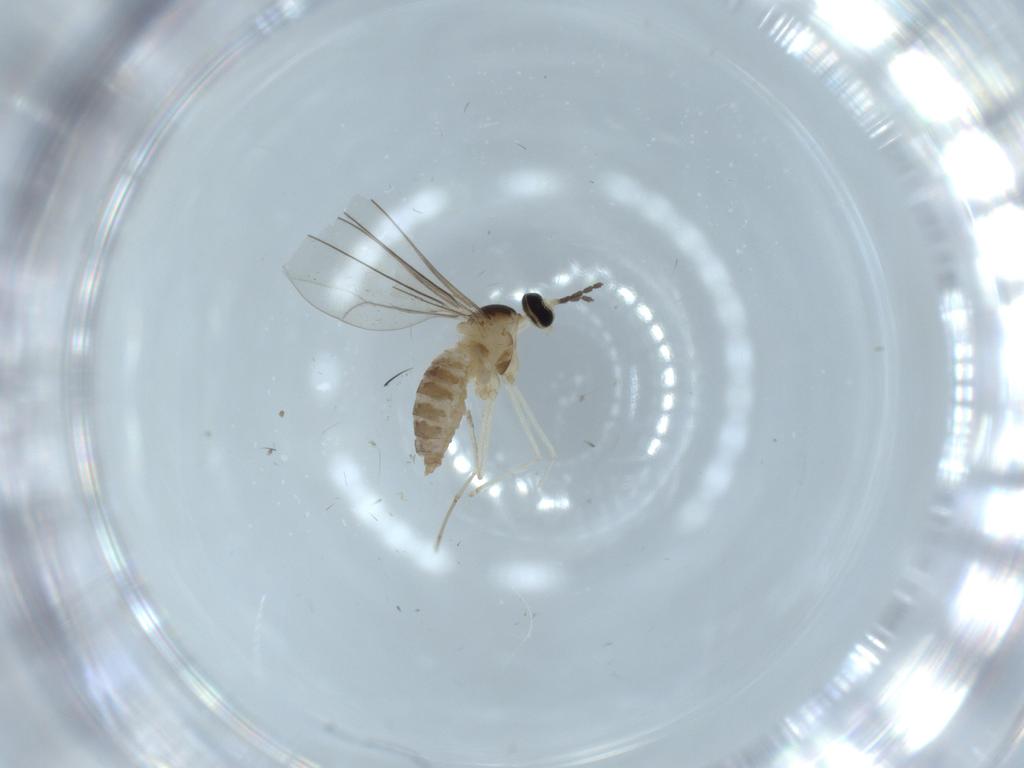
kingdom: Animalia
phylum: Arthropoda
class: Insecta
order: Diptera
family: Cecidomyiidae
